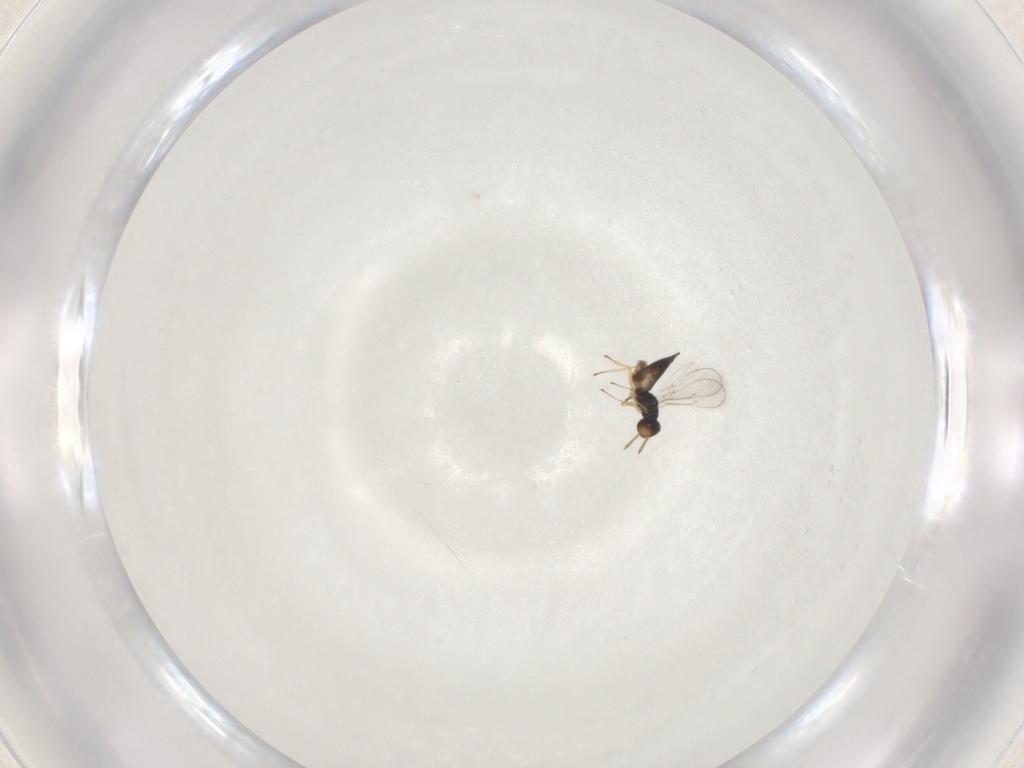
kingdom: Animalia
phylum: Arthropoda
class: Insecta
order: Hymenoptera
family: Eulophidae
